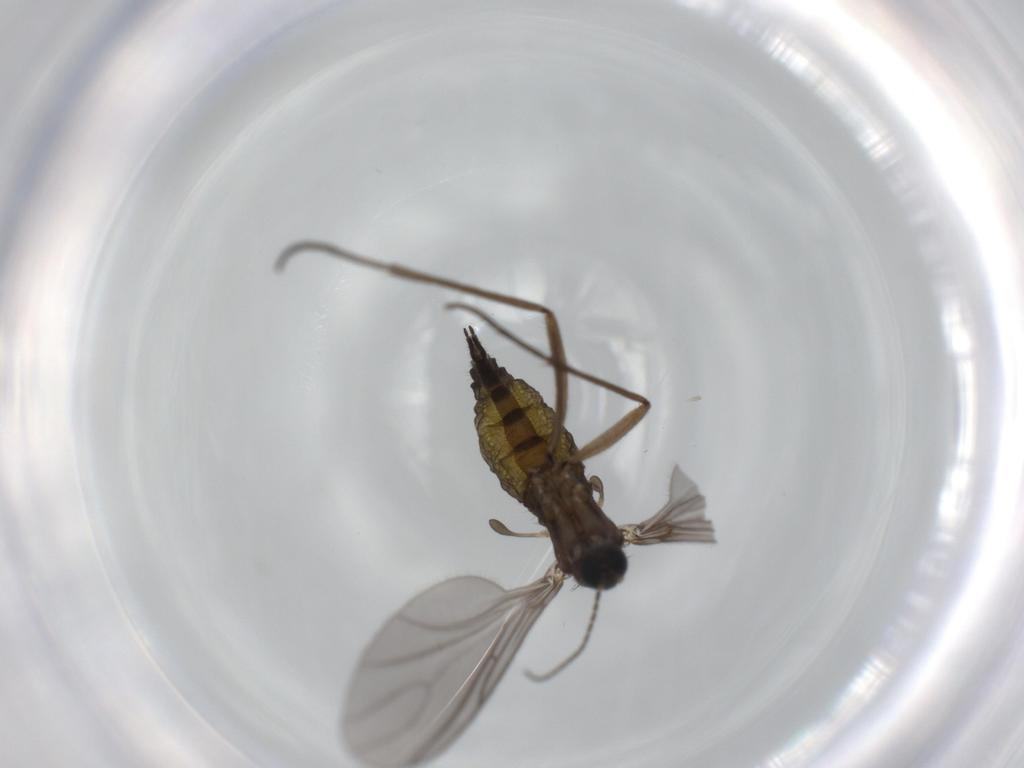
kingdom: Animalia
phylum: Arthropoda
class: Insecta
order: Diptera
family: Sciaridae
